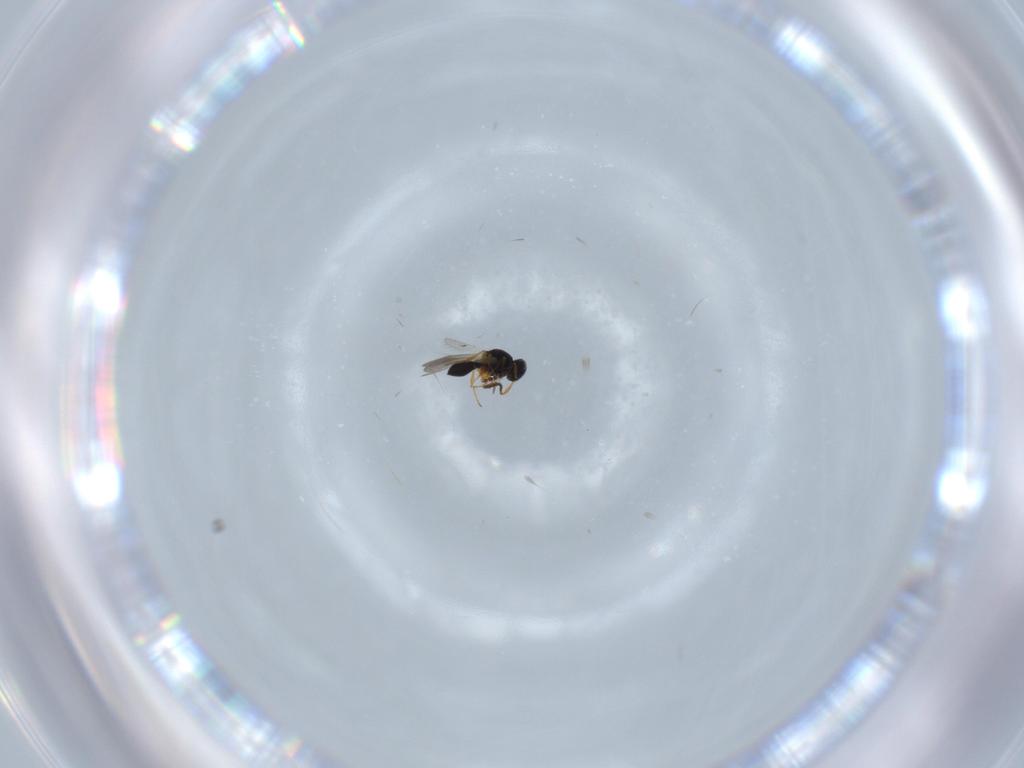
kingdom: Animalia
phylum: Arthropoda
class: Insecta
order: Hymenoptera
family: Platygastridae
